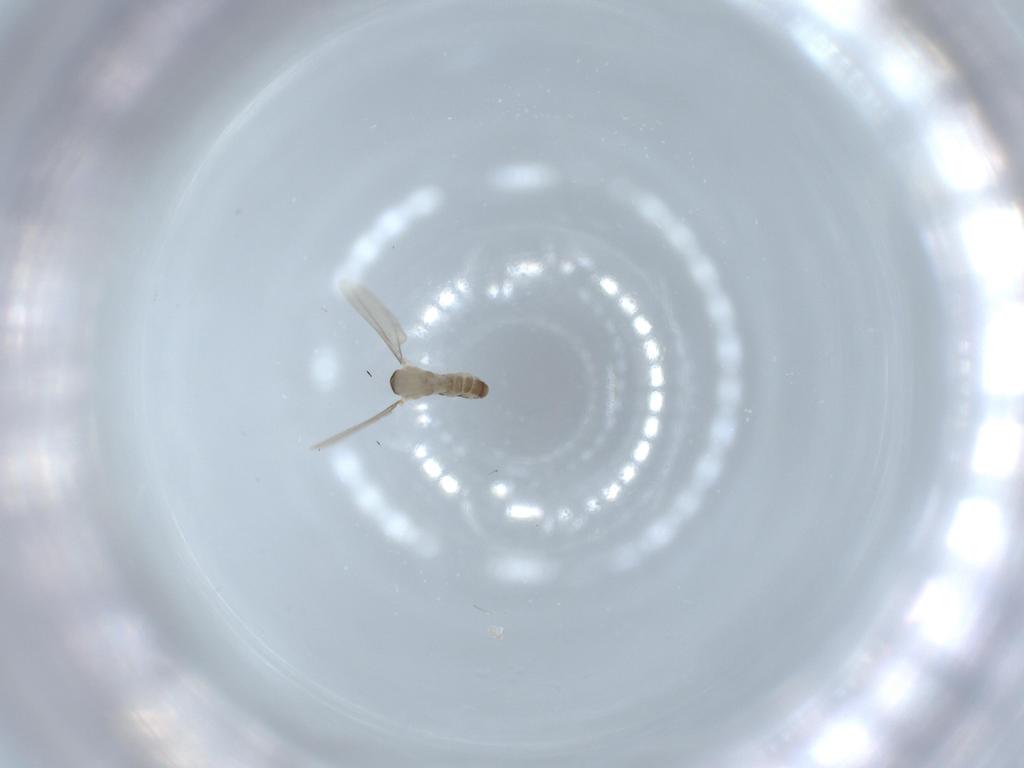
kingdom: Animalia
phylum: Arthropoda
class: Insecta
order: Diptera
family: Cecidomyiidae
